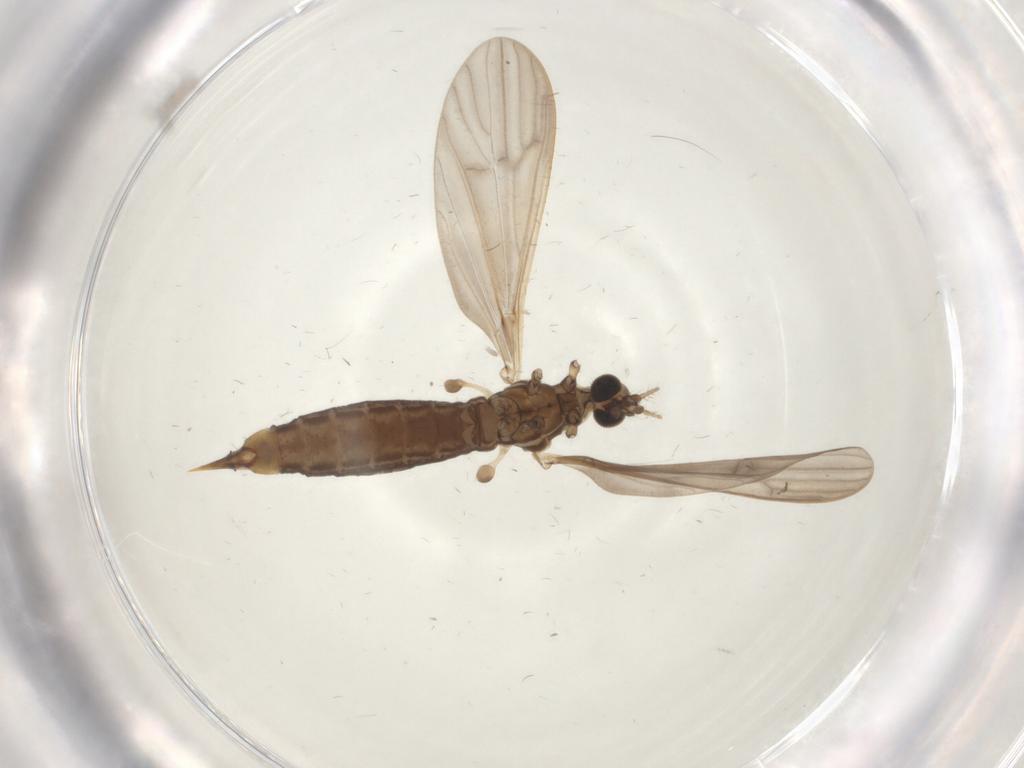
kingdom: Animalia
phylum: Arthropoda
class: Insecta
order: Diptera
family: Limoniidae
